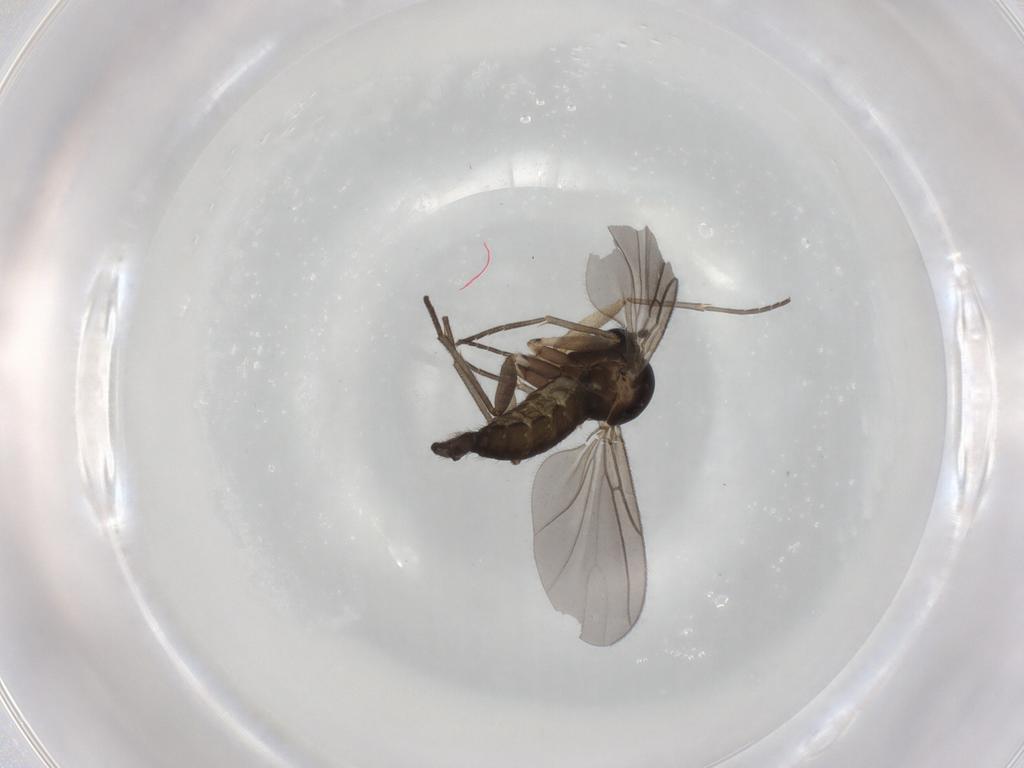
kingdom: Animalia
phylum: Arthropoda
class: Insecta
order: Diptera
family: Sciaridae
